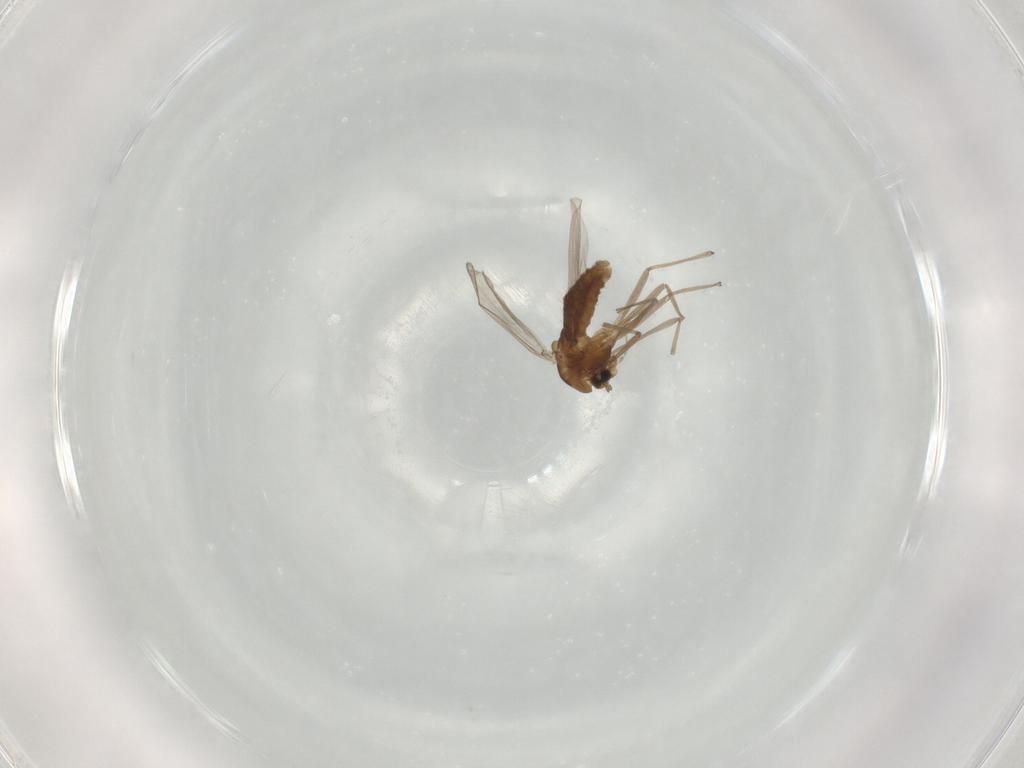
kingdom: Animalia
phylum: Arthropoda
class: Insecta
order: Diptera
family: Chironomidae
